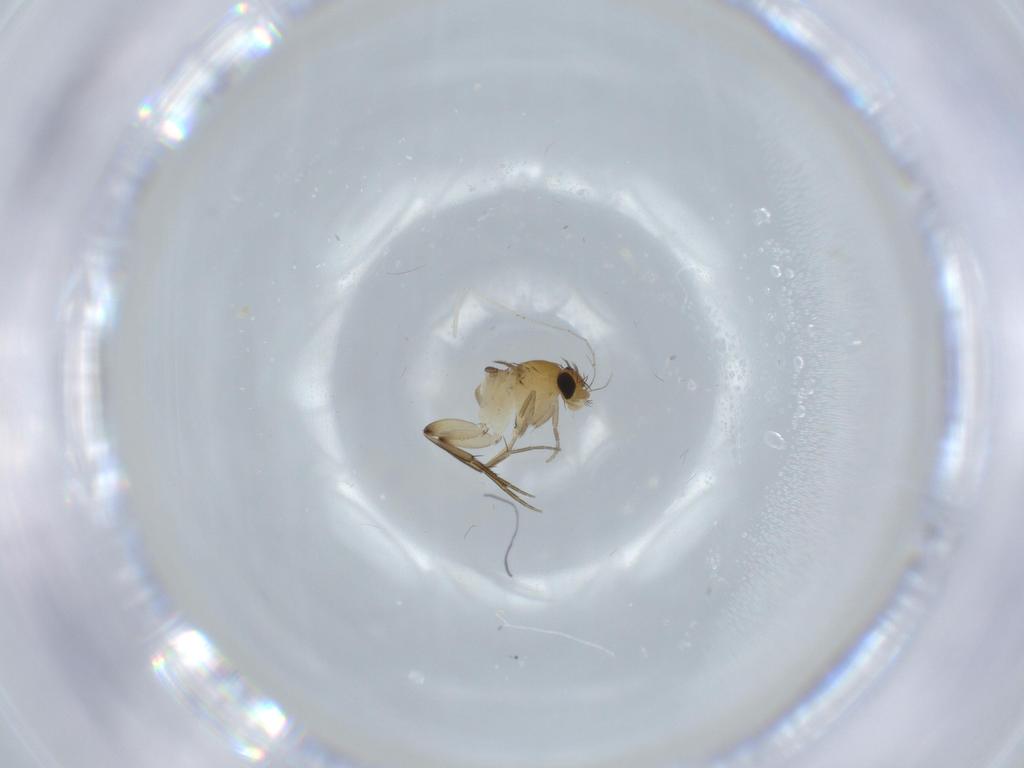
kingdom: Animalia
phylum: Arthropoda
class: Insecta
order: Diptera
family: Phoridae
